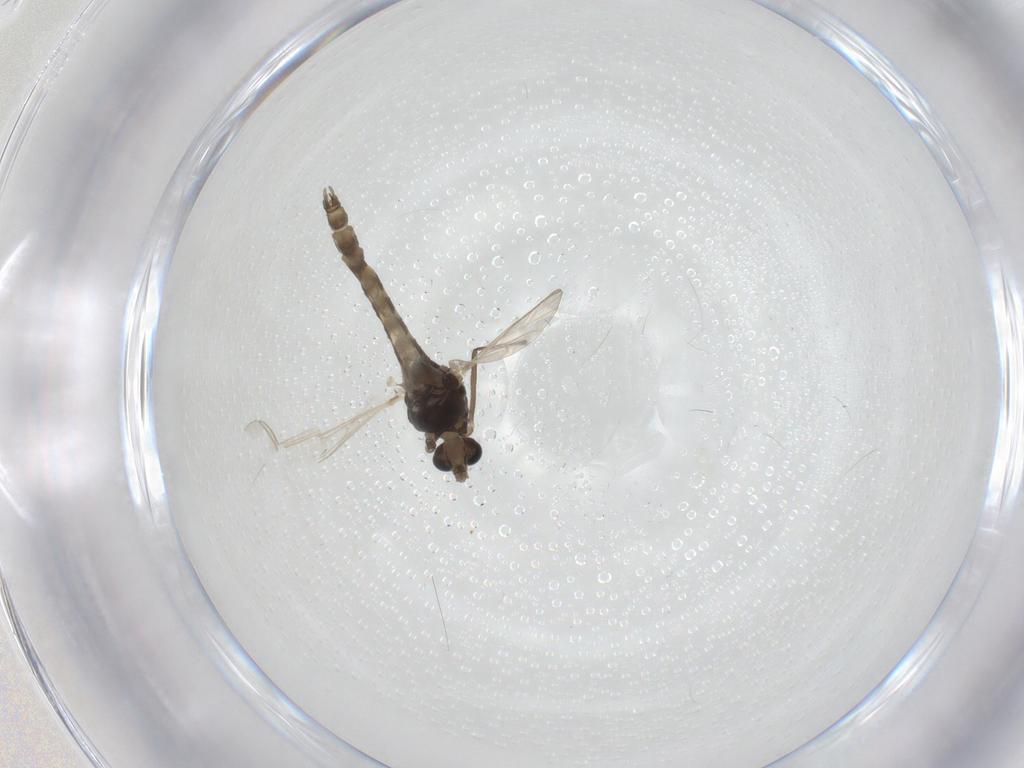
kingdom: Animalia
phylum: Arthropoda
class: Insecta
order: Diptera
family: Chironomidae
